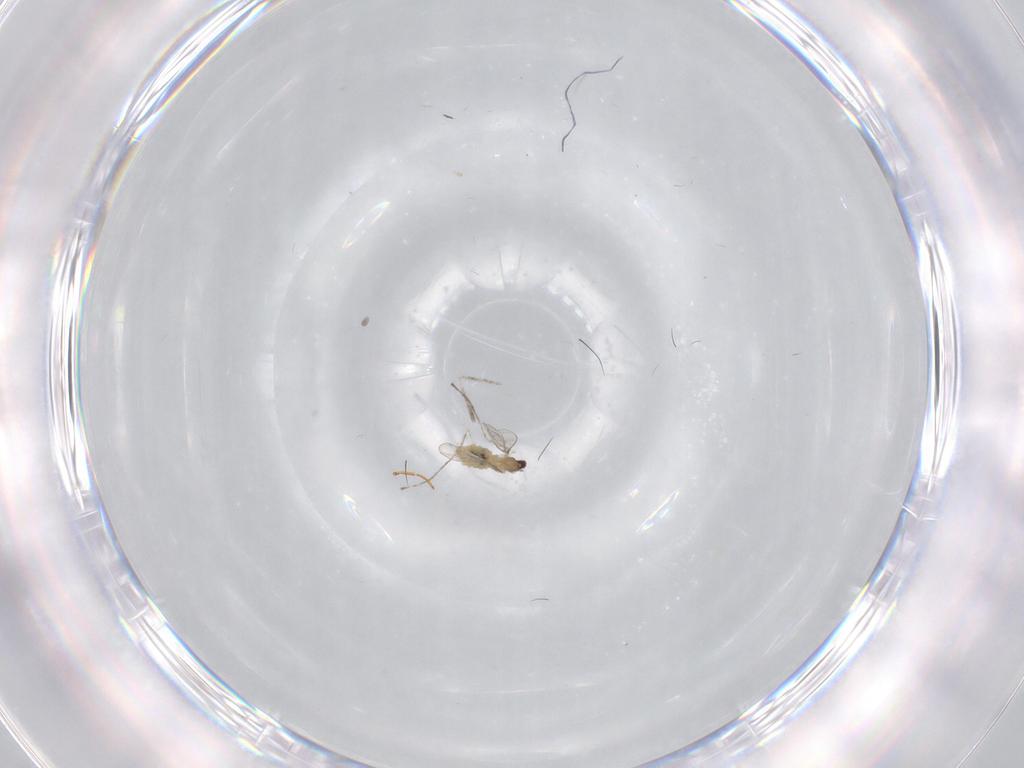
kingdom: Animalia
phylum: Arthropoda
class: Insecta
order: Diptera
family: Cecidomyiidae
